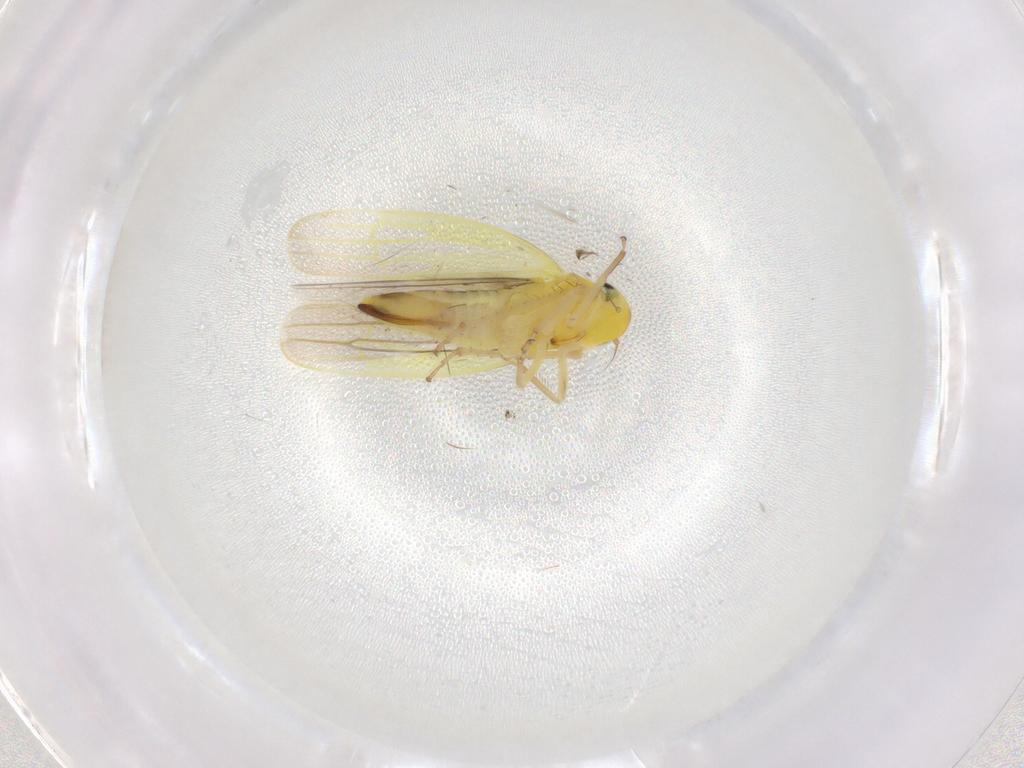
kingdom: Animalia
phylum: Arthropoda
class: Insecta
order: Hemiptera
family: Cicadellidae
